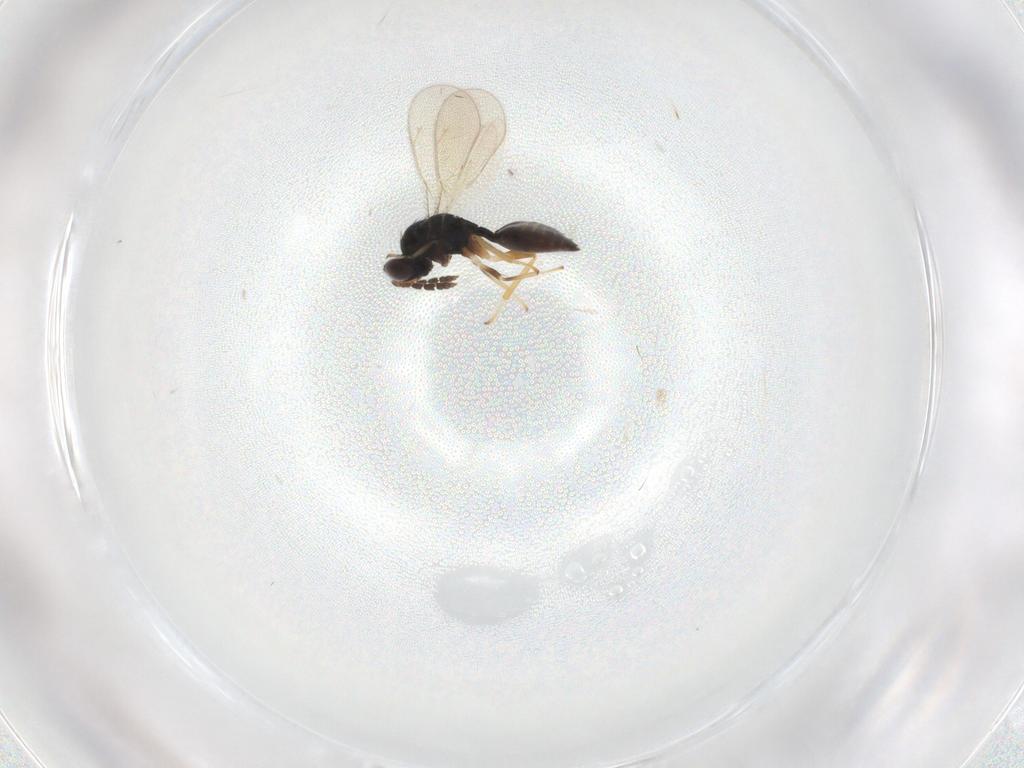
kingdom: Animalia
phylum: Arthropoda
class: Insecta
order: Hymenoptera
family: Eulophidae
